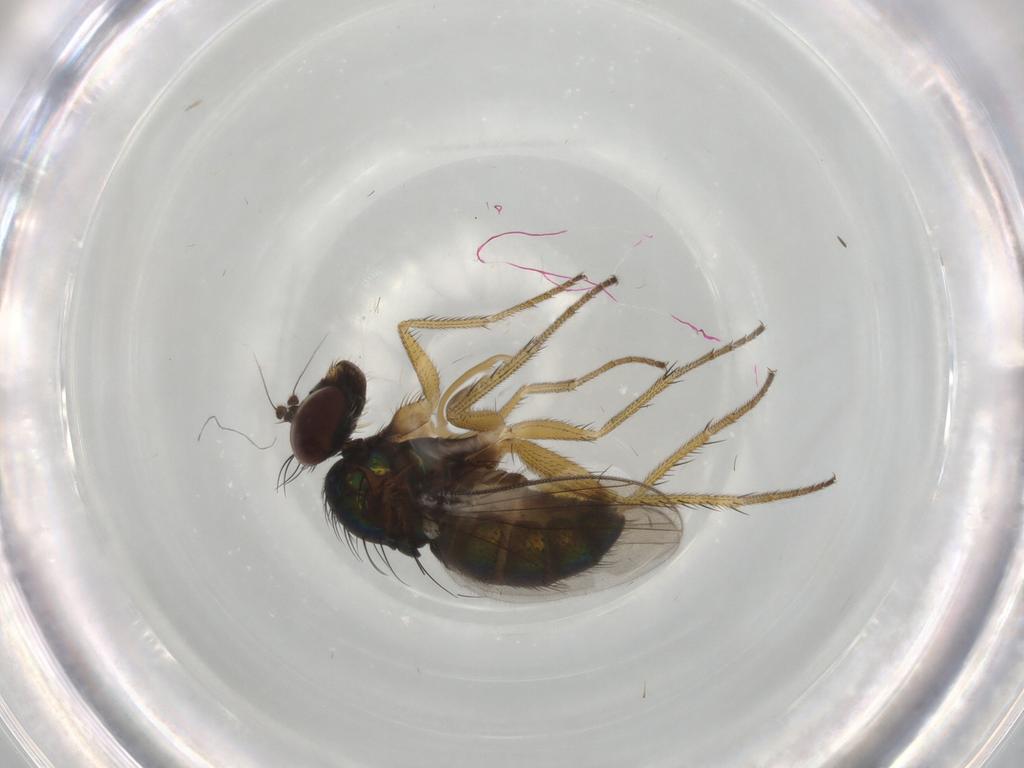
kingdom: Animalia
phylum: Arthropoda
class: Insecta
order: Diptera
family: Dolichopodidae
